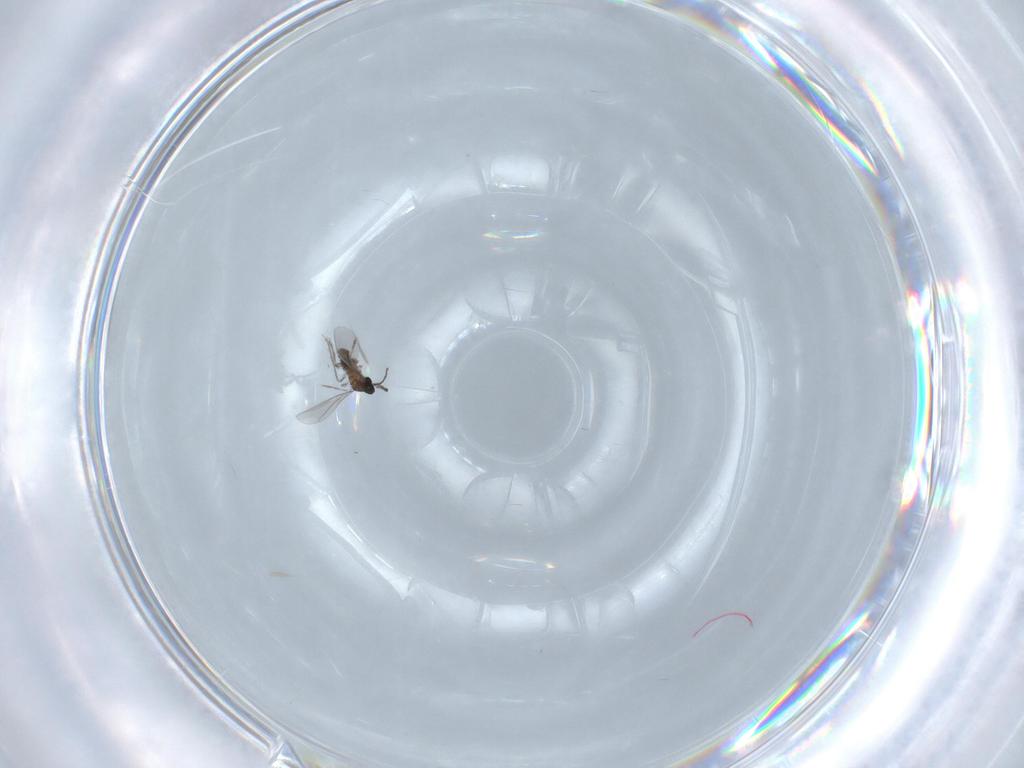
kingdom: Animalia
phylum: Arthropoda
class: Insecta
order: Diptera
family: Cecidomyiidae
